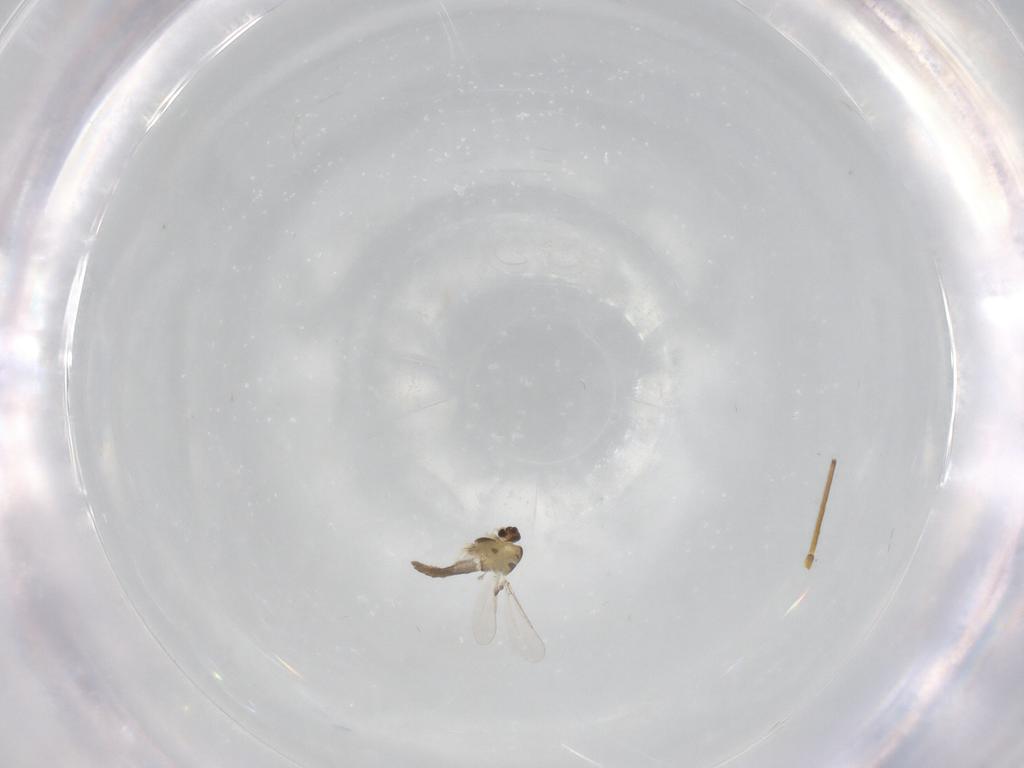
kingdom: Animalia
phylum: Arthropoda
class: Insecta
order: Diptera
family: Chironomidae
